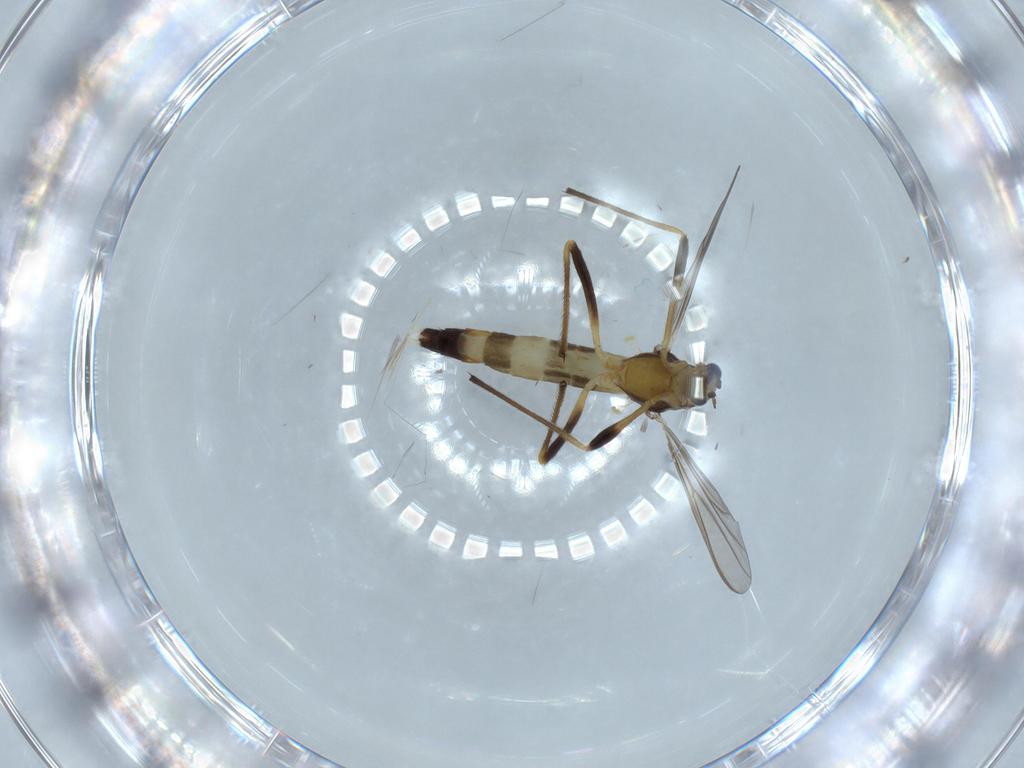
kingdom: Animalia
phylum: Arthropoda
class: Insecta
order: Diptera
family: Chironomidae
